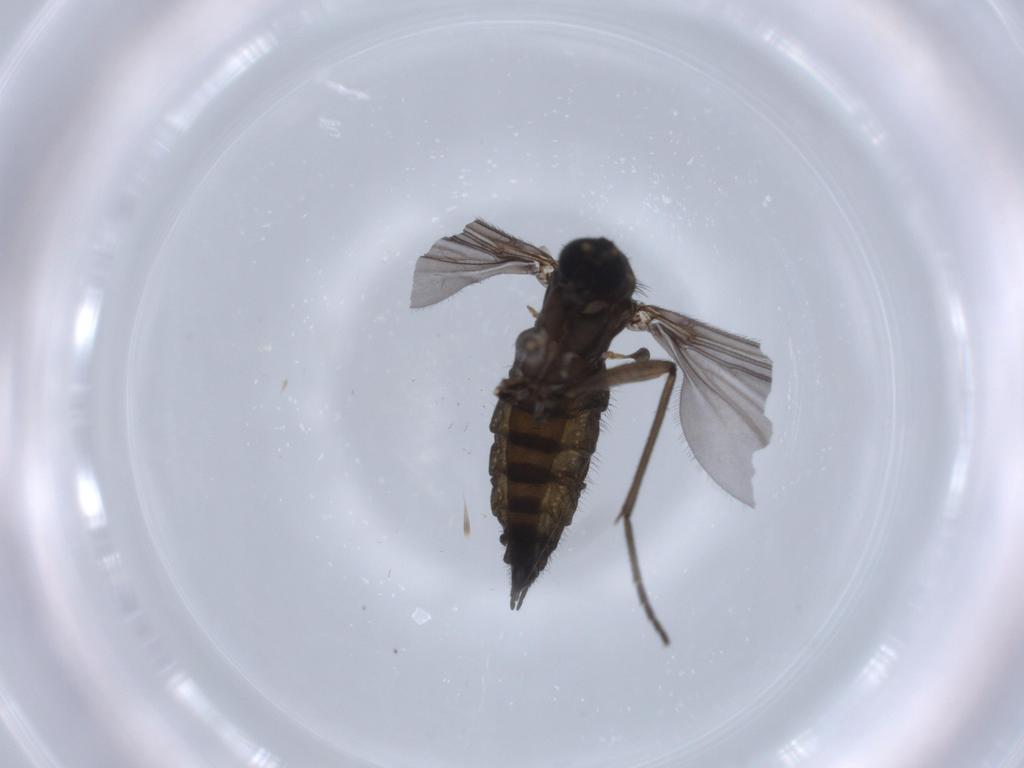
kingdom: Animalia
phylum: Arthropoda
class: Insecta
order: Diptera
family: Sciaridae
